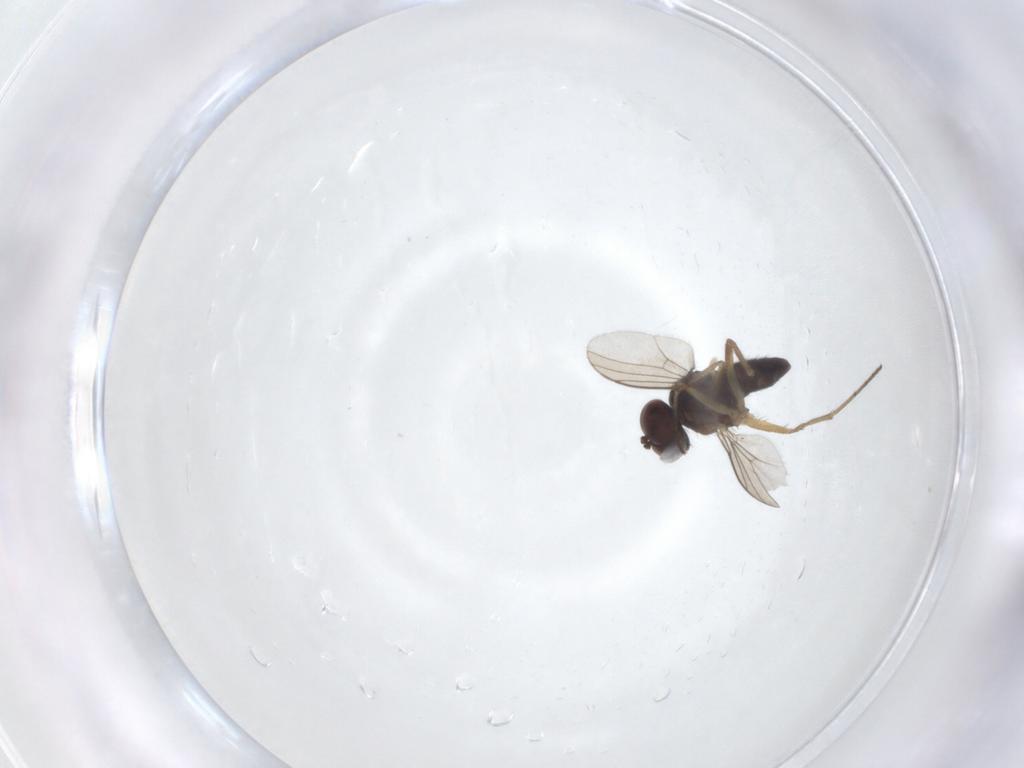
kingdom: Animalia
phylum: Arthropoda
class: Insecta
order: Diptera
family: Dolichopodidae
